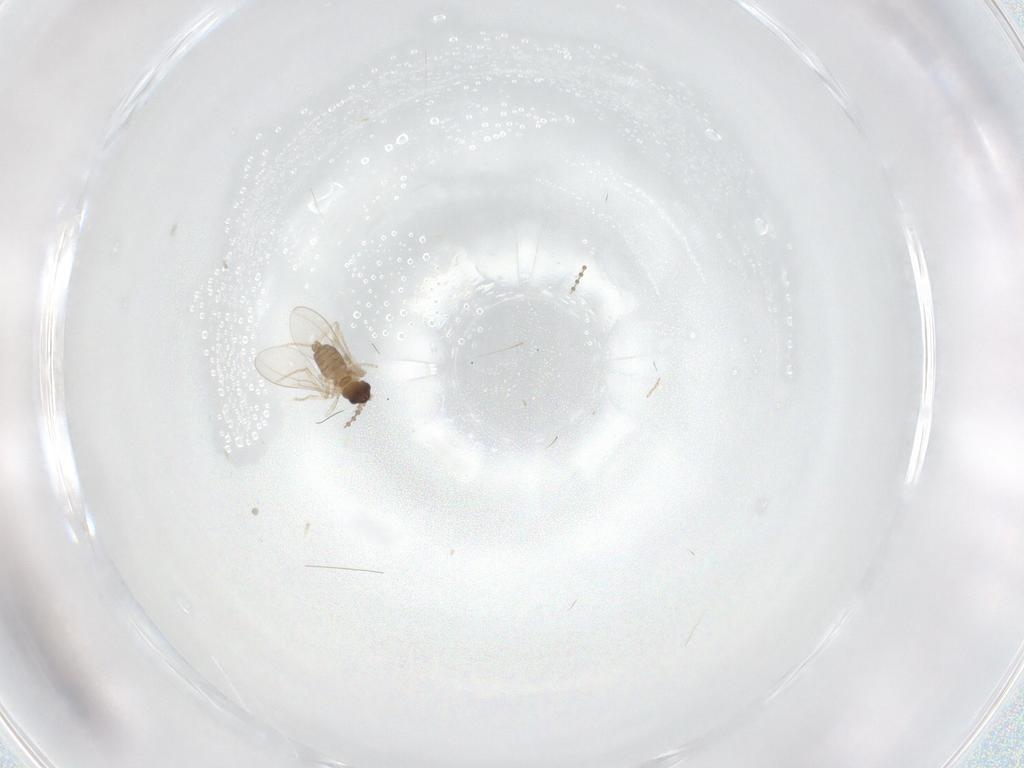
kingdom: Animalia
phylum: Arthropoda
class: Insecta
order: Diptera
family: Cecidomyiidae
